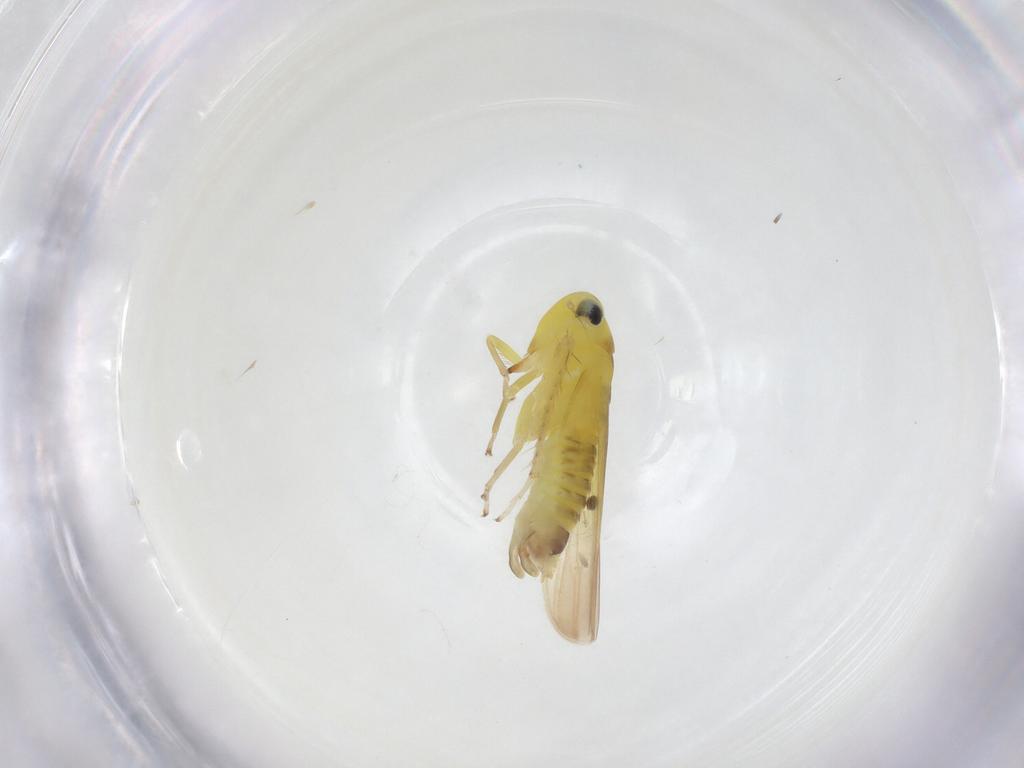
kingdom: Animalia
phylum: Arthropoda
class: Insecta
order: Hemiptera
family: Cicadellidae
